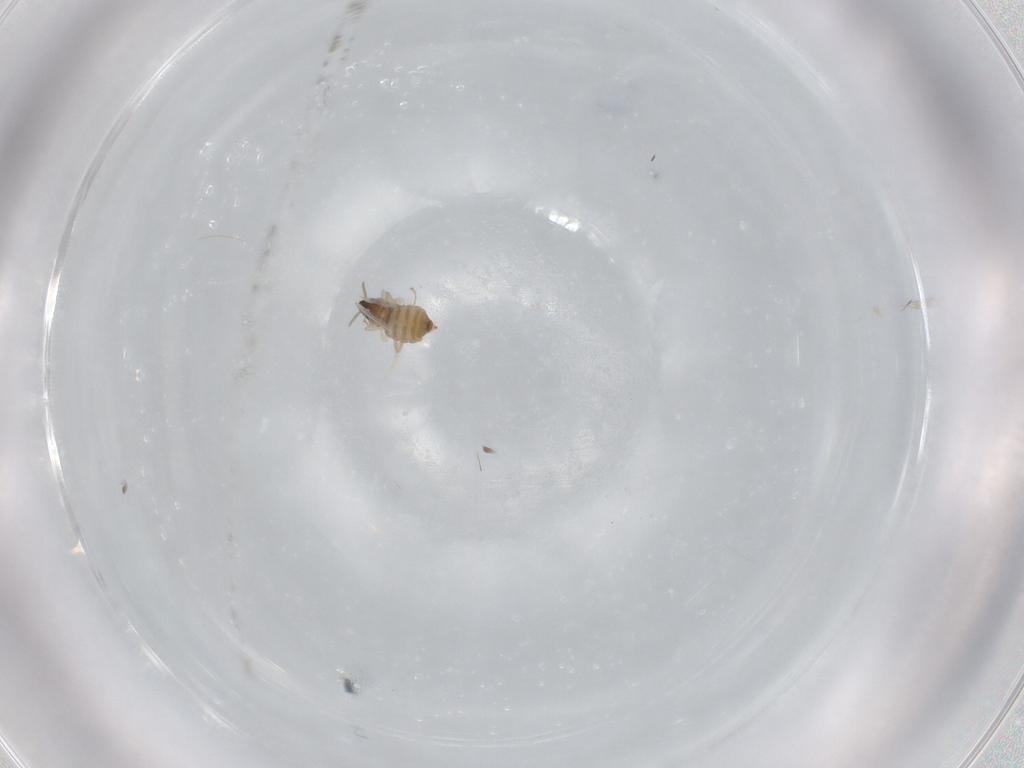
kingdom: Animalia
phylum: Arthropoda
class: Insecta
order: Diptera
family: Cecidomyiidae
